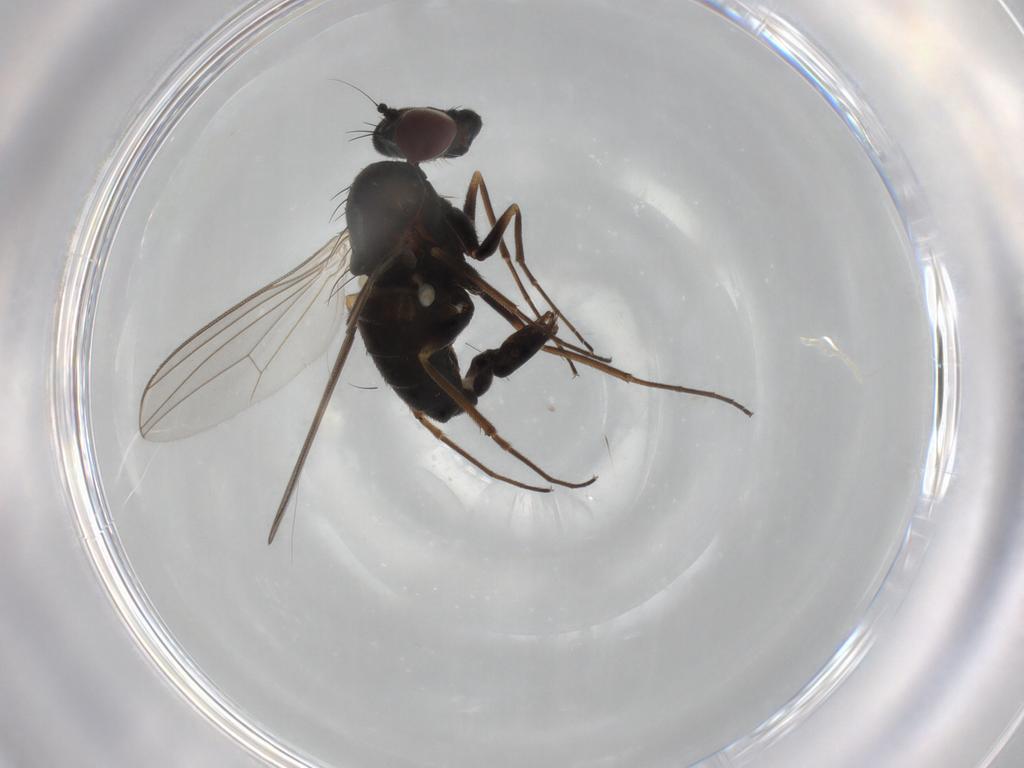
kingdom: Animalia
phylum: Arthropoda
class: Insecta
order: Diptera
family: Dolichopodidae
